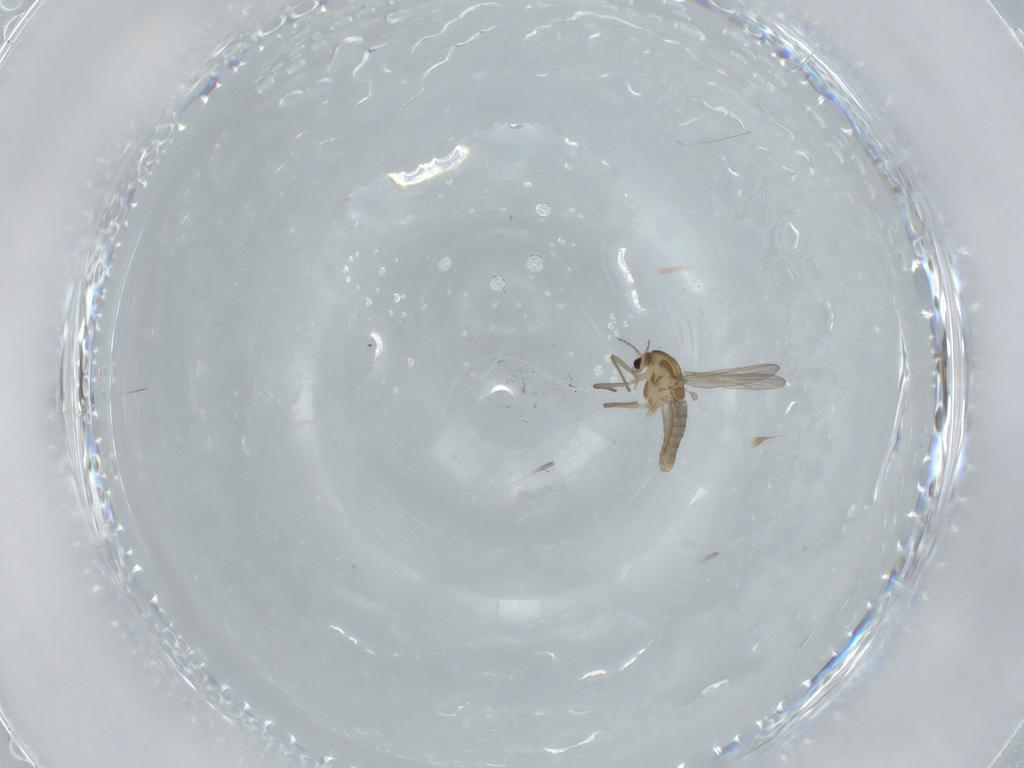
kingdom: Animalia
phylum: Arthropoda
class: Insecta
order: Diptera
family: Chironomidae
